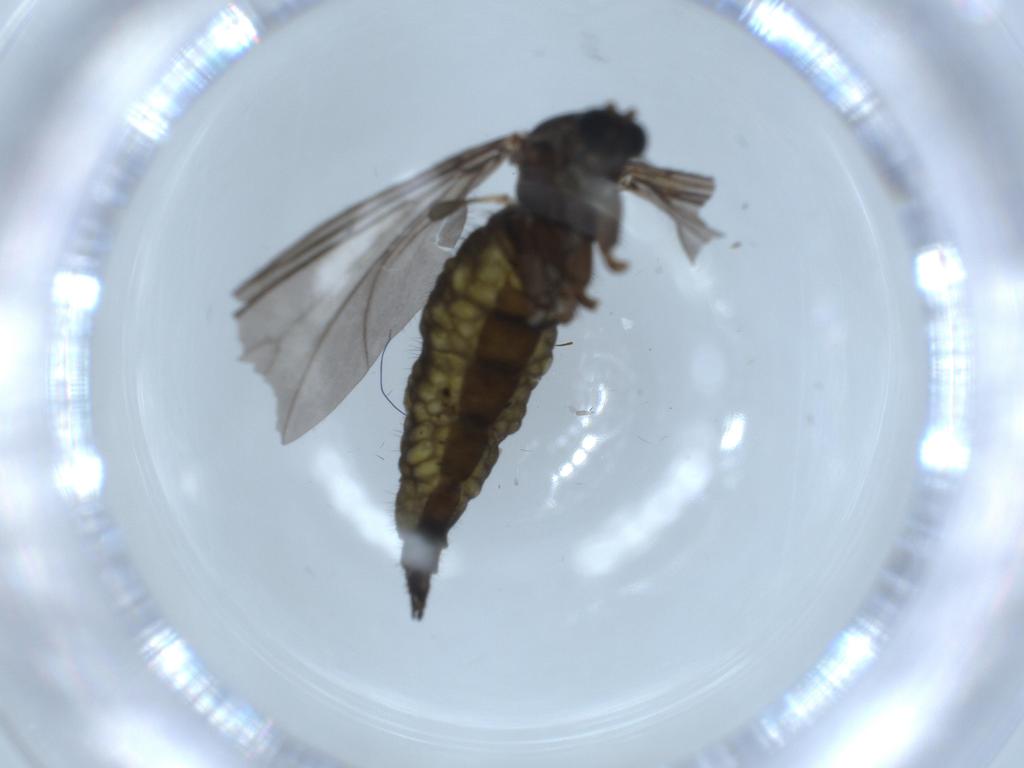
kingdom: Animalia
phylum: Arthropoda
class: Insecta
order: Diptera
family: Sciaridae
